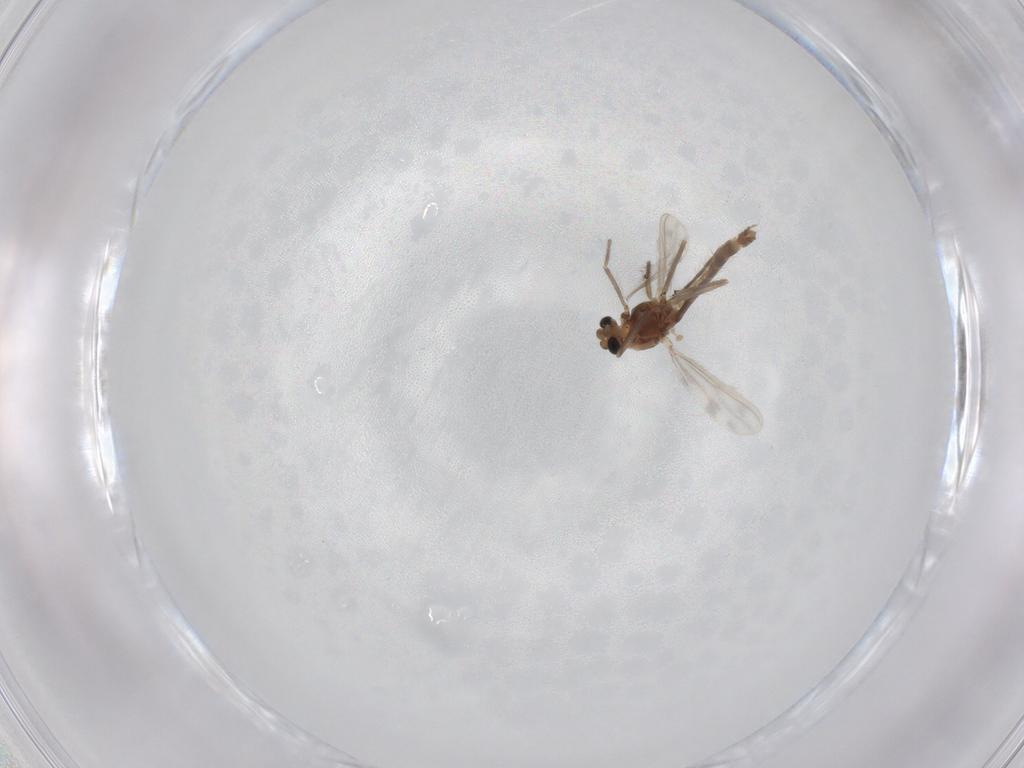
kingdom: Animalia
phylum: Arthropoda
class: Insecta
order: Diptera
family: Chironomidae
